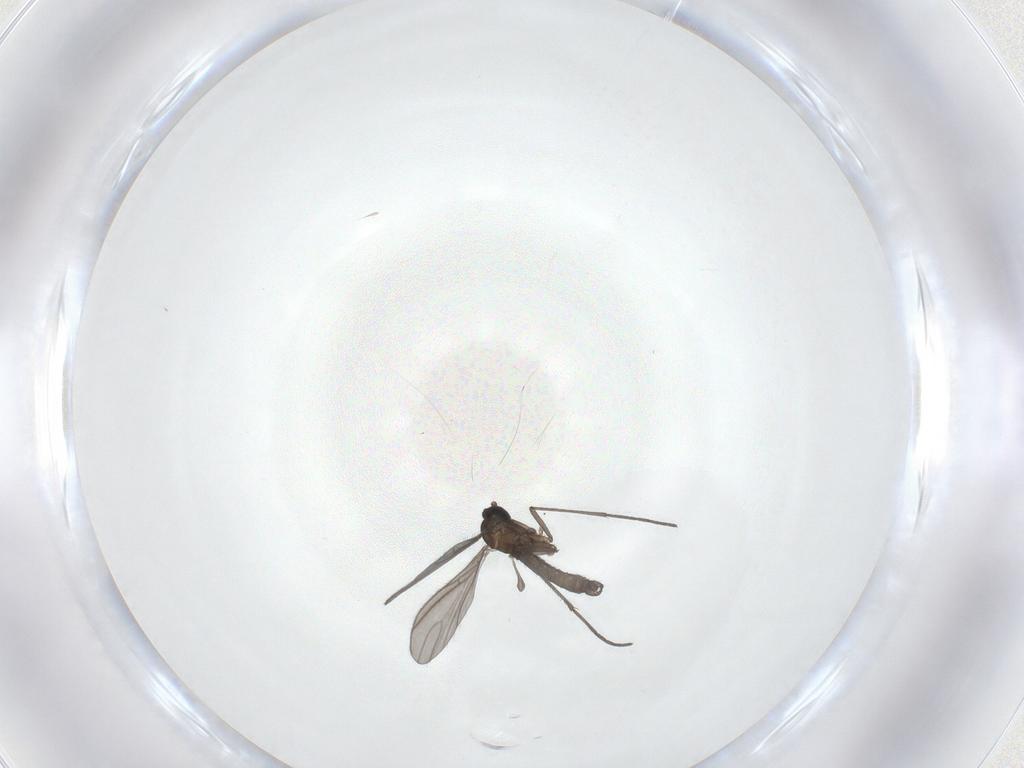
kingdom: Animalia
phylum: Arthropoda
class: Insecta
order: Diptera
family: Sciaridae
